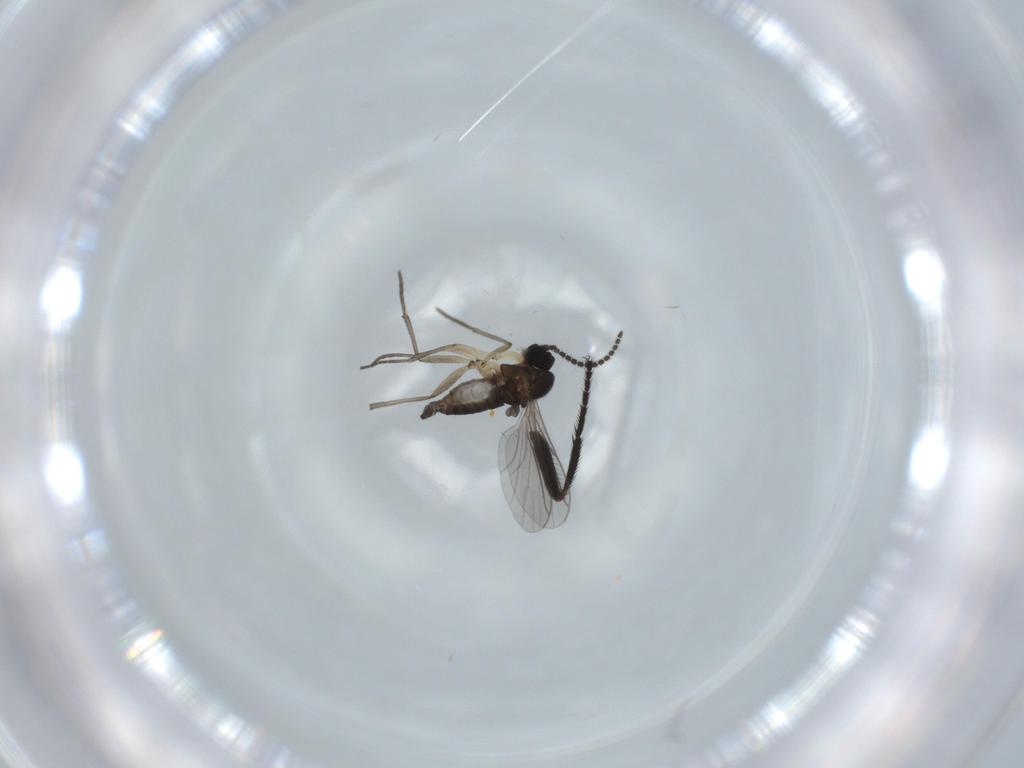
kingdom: Animalia
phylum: Arthropoda
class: Insecta
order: Diptera
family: Milichiidae
